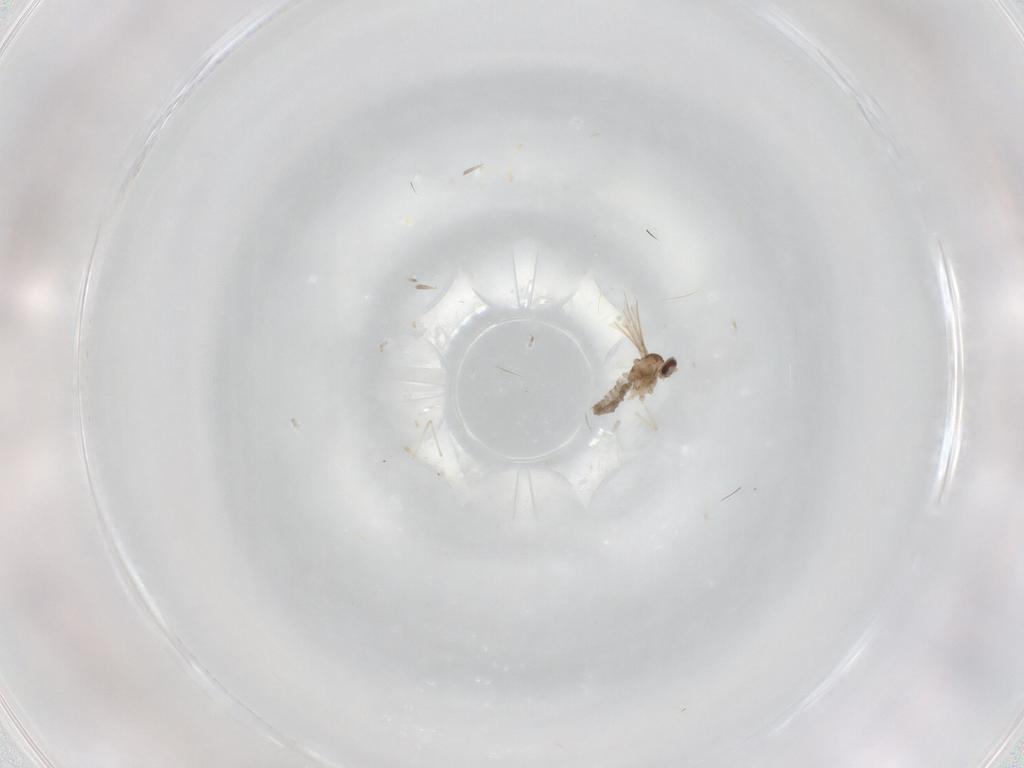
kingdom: Animalia
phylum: Arthropoda
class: Insecta
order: Diptera
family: Cecidomyiidae
